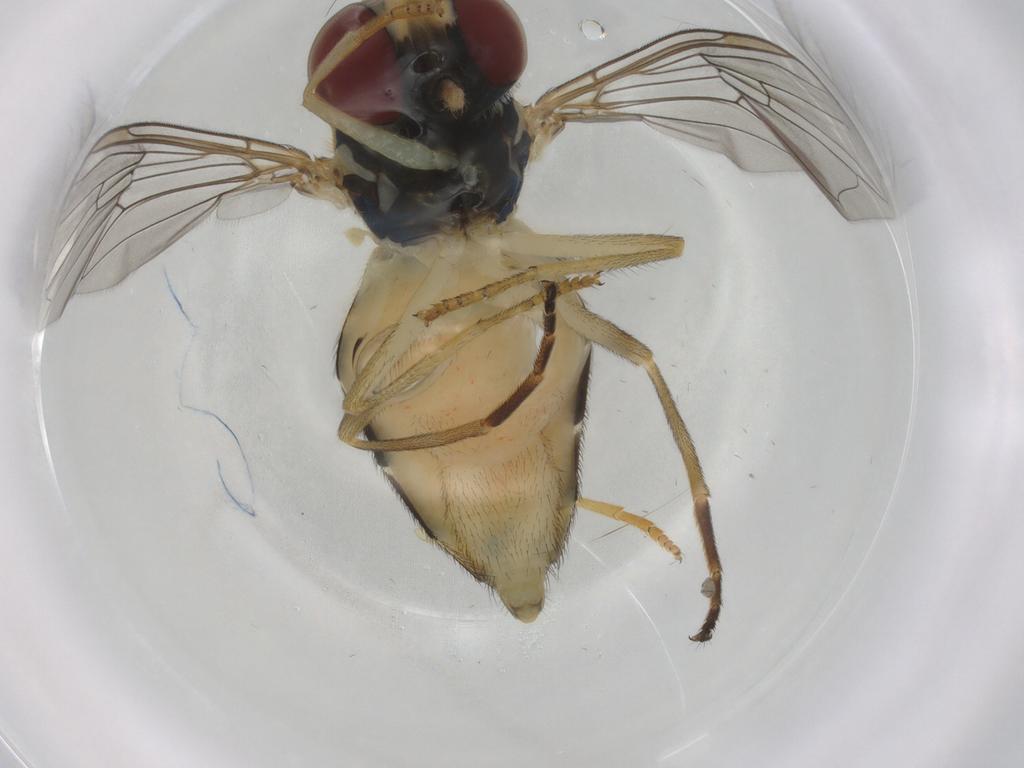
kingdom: Animalia
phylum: Arthropoda
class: Insecta
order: Diptera
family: Syrphidae
